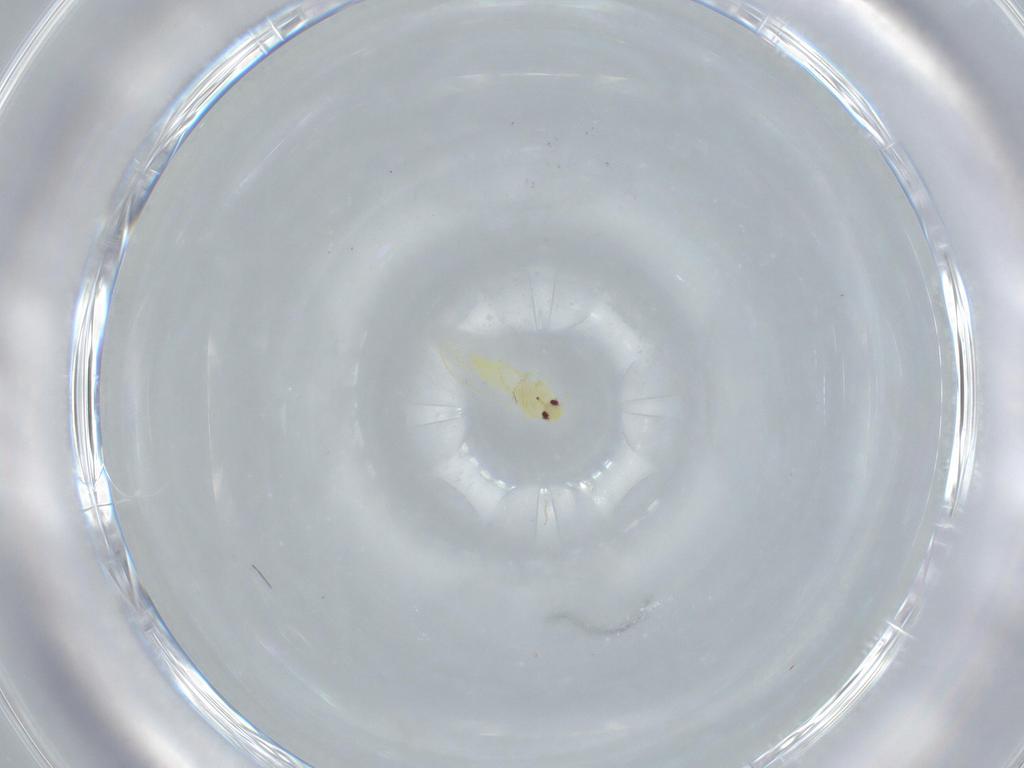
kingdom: Animalia
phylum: Arthropoda
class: Insecta
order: Hemiptera
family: Aleyrodidae
